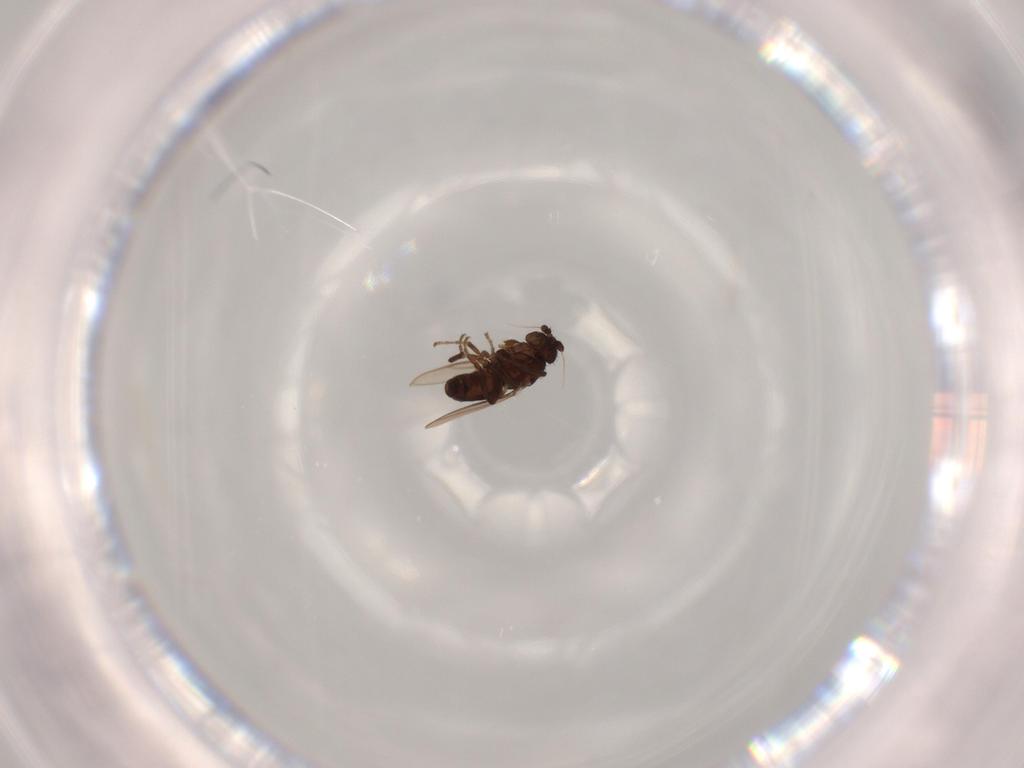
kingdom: Animalia
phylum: Arthropoda
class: Insecta
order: Diptera
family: Sphaeroceridae
